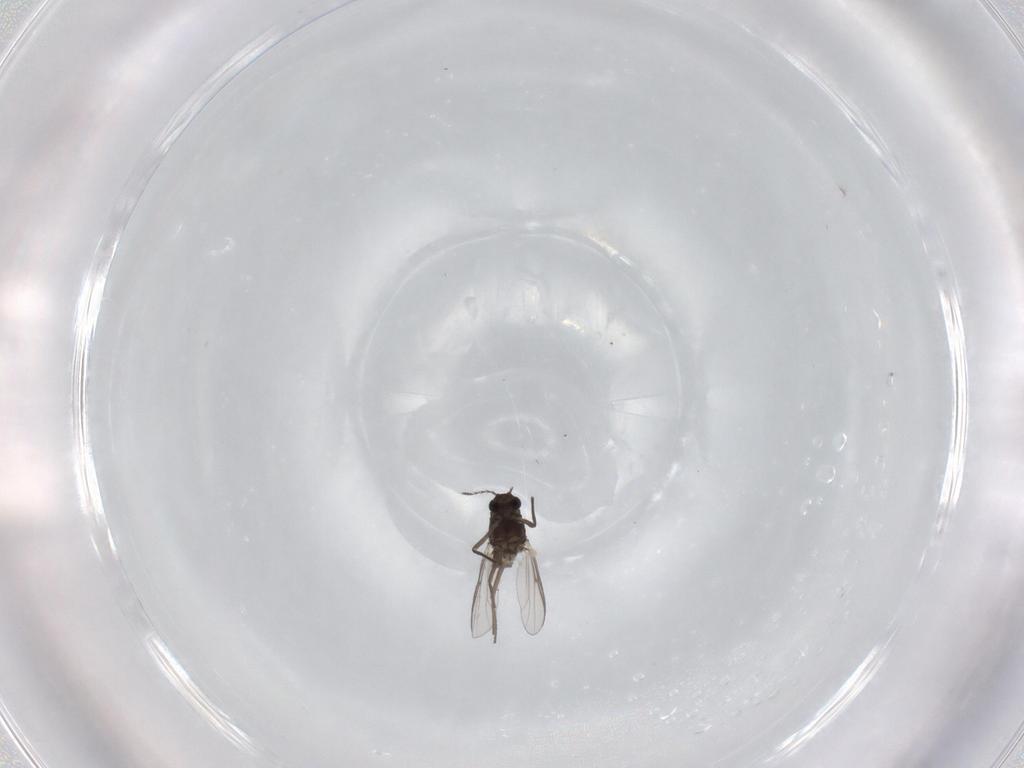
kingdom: Animalia
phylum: Arthropoda
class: Insecta
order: Diptera
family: Chironomidae
